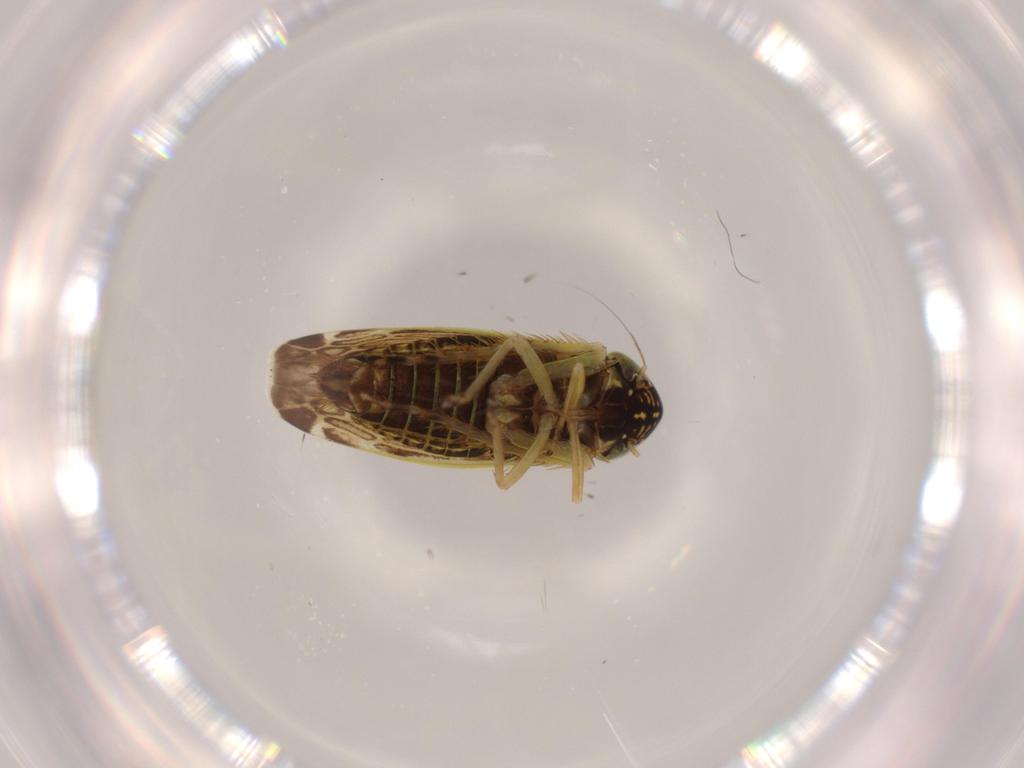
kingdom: Animalia
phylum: Arthropoda
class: Insecta
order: Hemiptera
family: Cicadellidae
